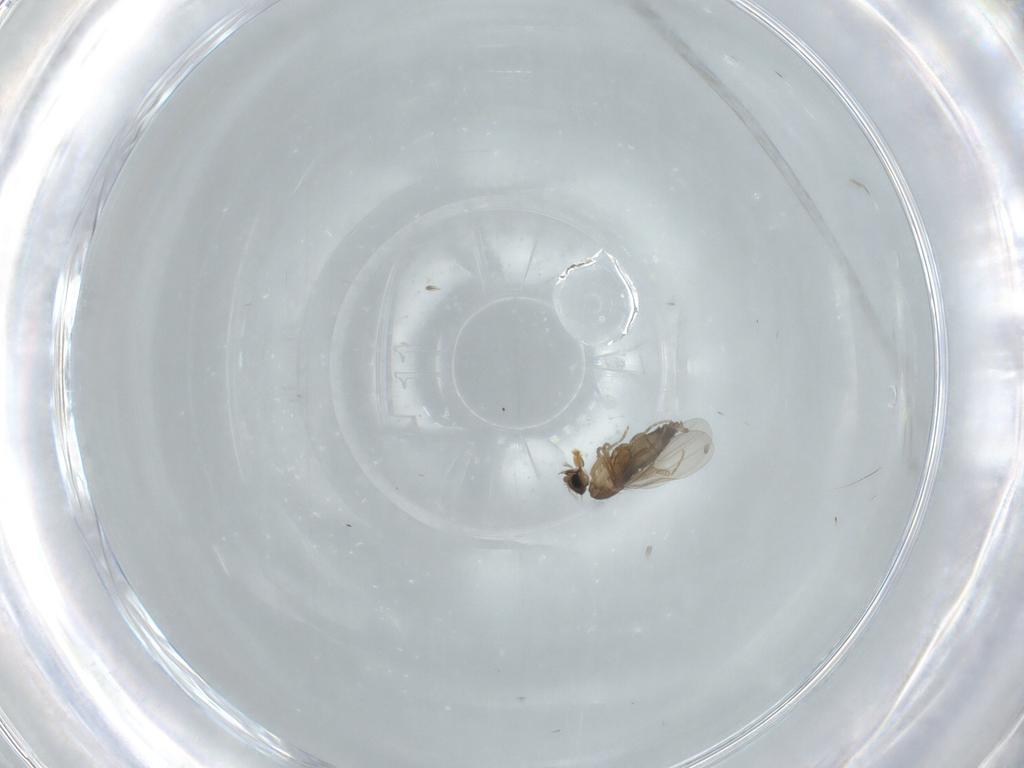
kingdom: Animalia
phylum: Arthropoda
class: Insecta
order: Diptera
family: Phoridae
